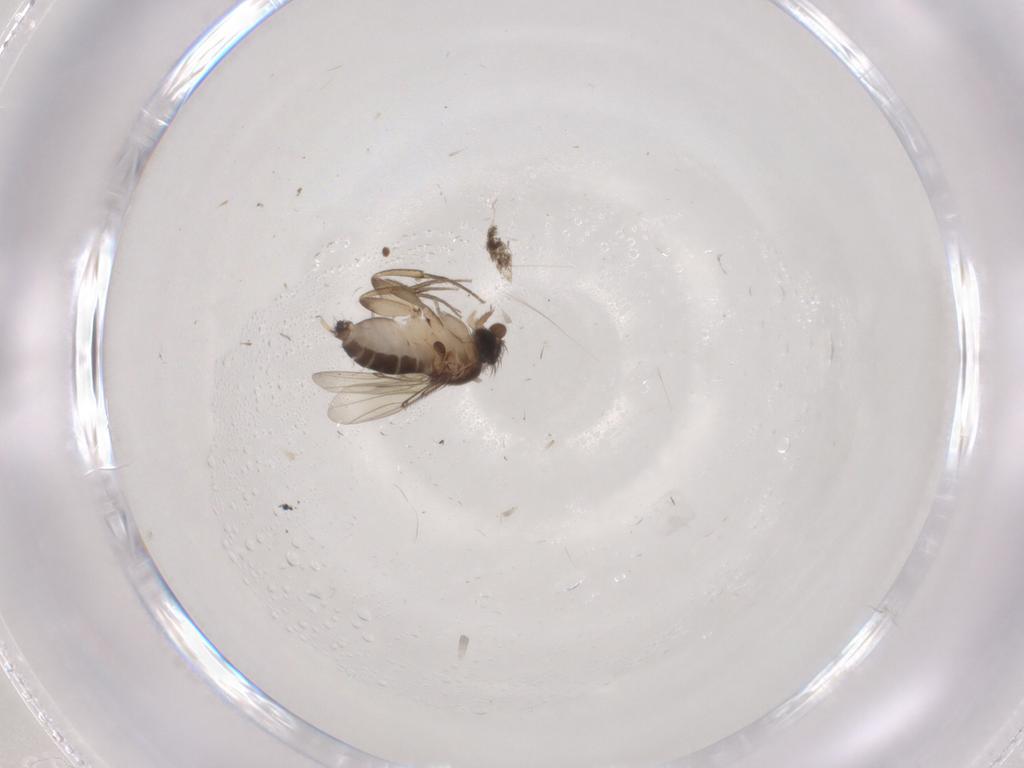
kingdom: Animalia
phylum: Arthropoda
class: Insecta
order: Diptera
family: Phoridae
